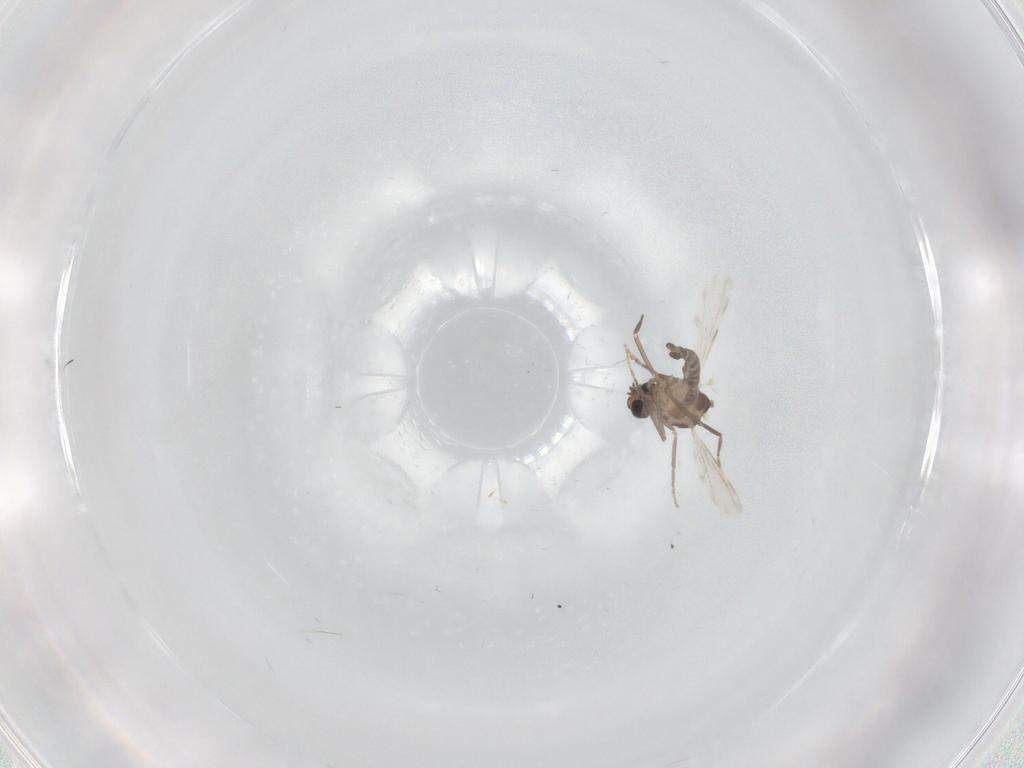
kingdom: Animalia
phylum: Arthropoda
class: Insecta
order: Diptera
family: Ceratopogonidae
